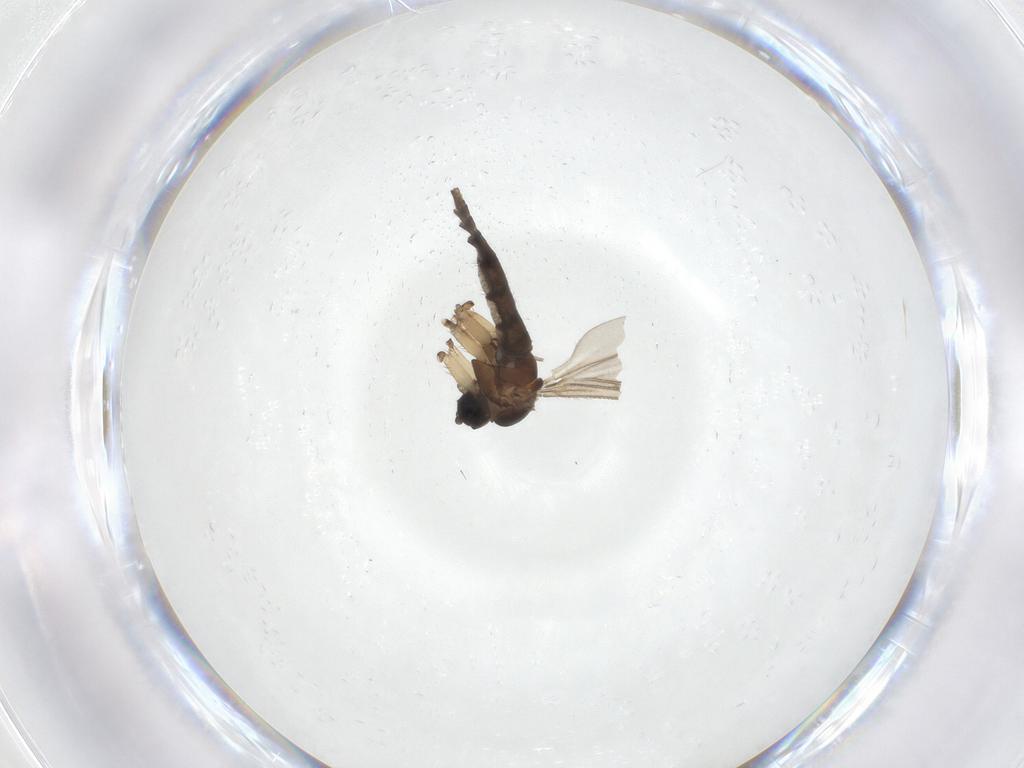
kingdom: Animalia
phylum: Arthropoda
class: Insecta
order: Diptera
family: Sciaridae
